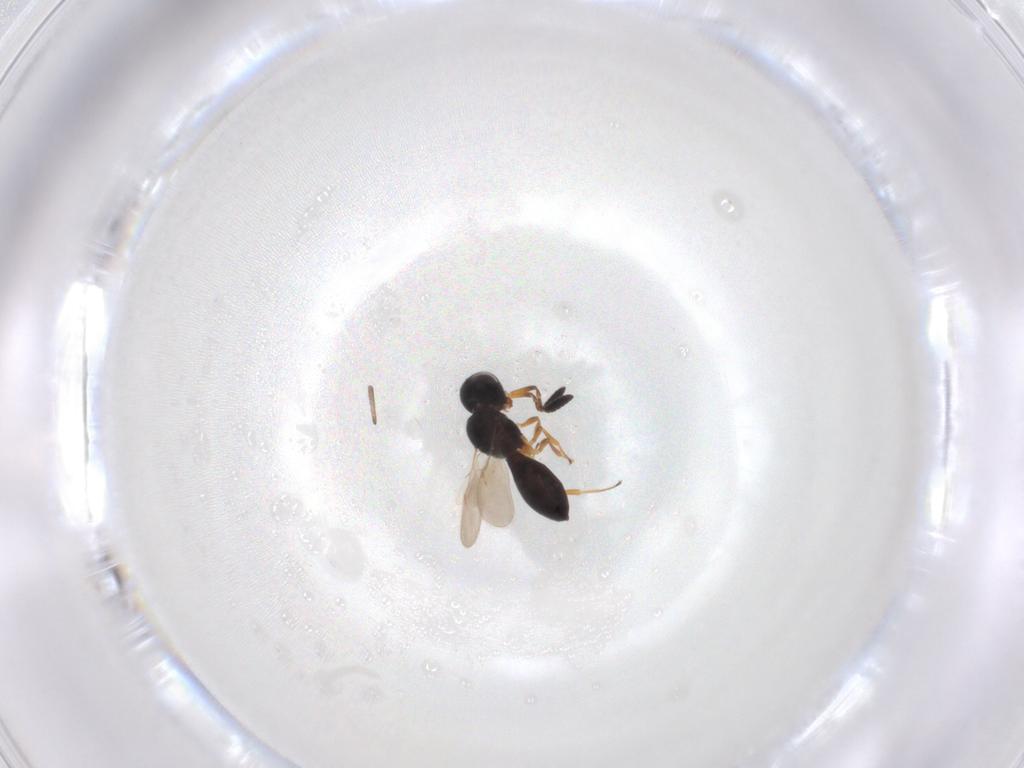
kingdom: Animalia
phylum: Arthropoda
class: Insecta
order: Hymenoptera
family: Scelionidae
